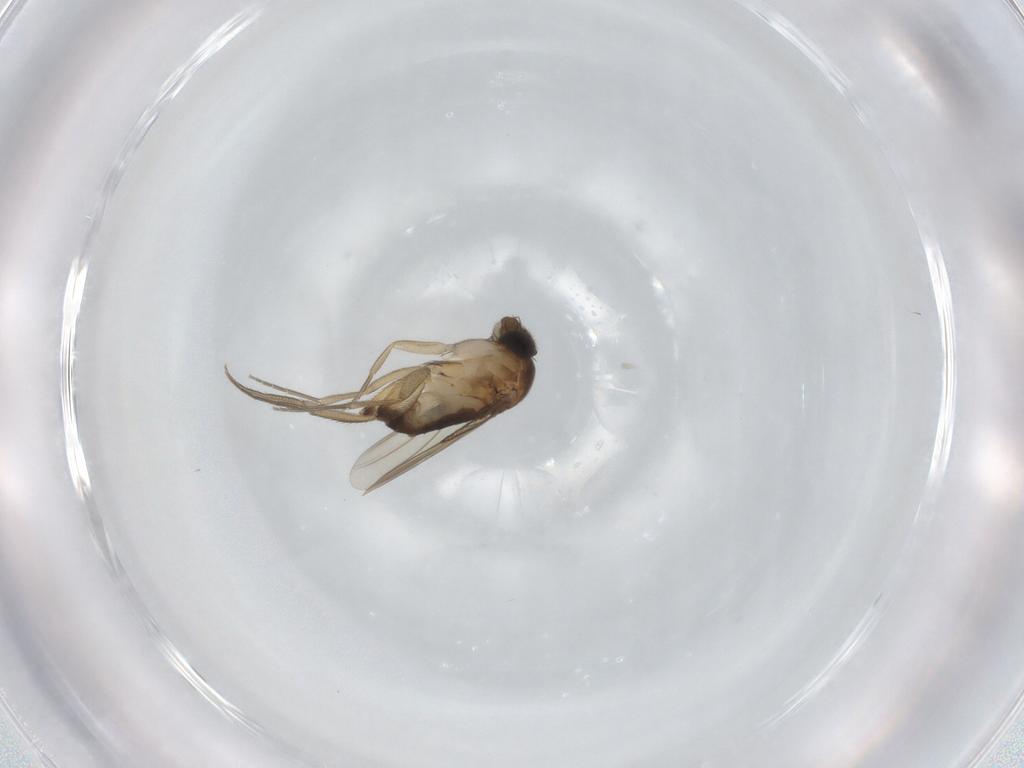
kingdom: Animalia
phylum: Arthropoda
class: Insecta
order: Diptera
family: Phoridae
